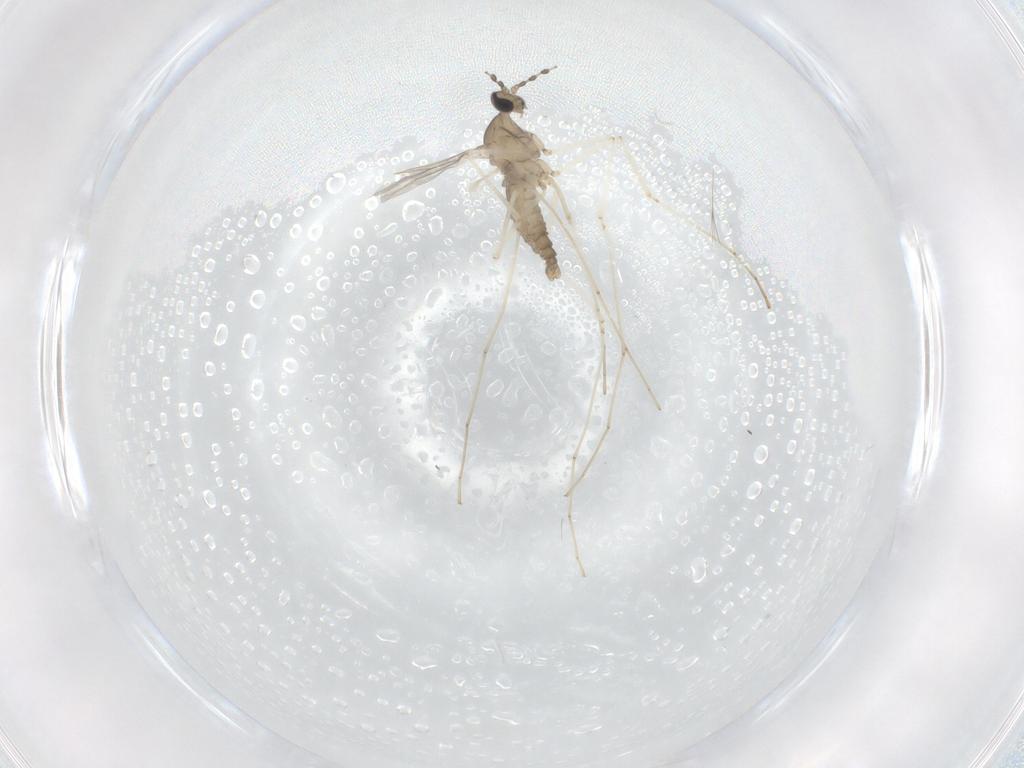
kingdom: Animalia
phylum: Arthropoda
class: Insecta
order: Diptera
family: Cecidomyiidae
